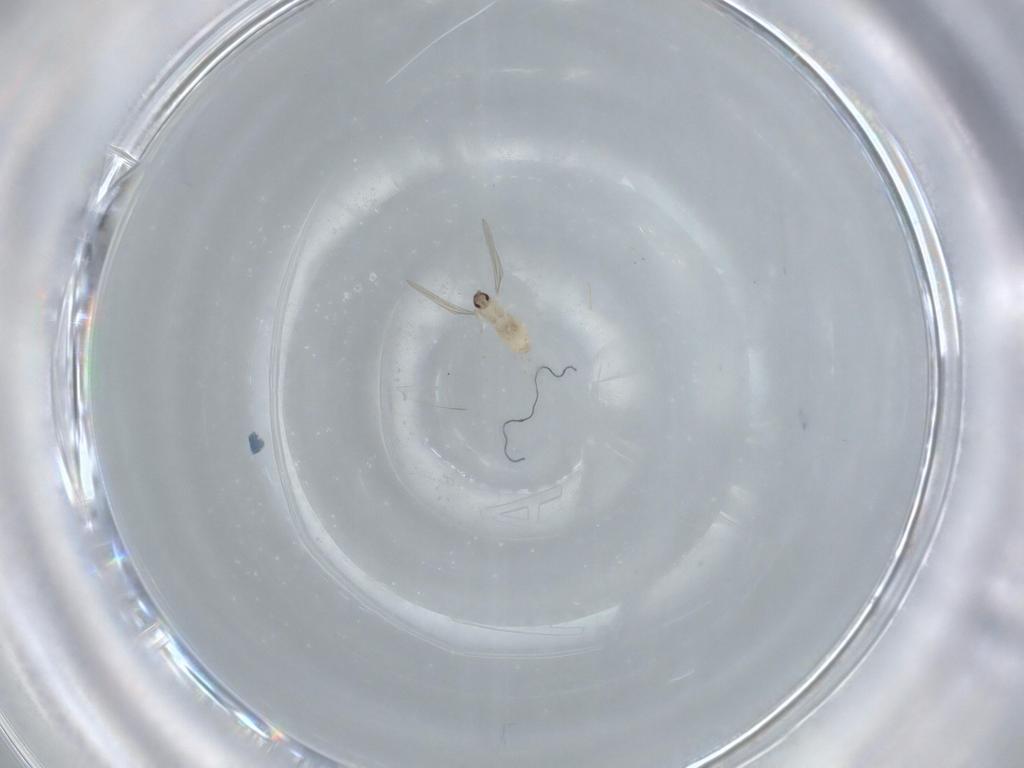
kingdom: Animalia
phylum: Arthropoda
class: Insecta
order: Diptera
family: Cecidomyiidae
